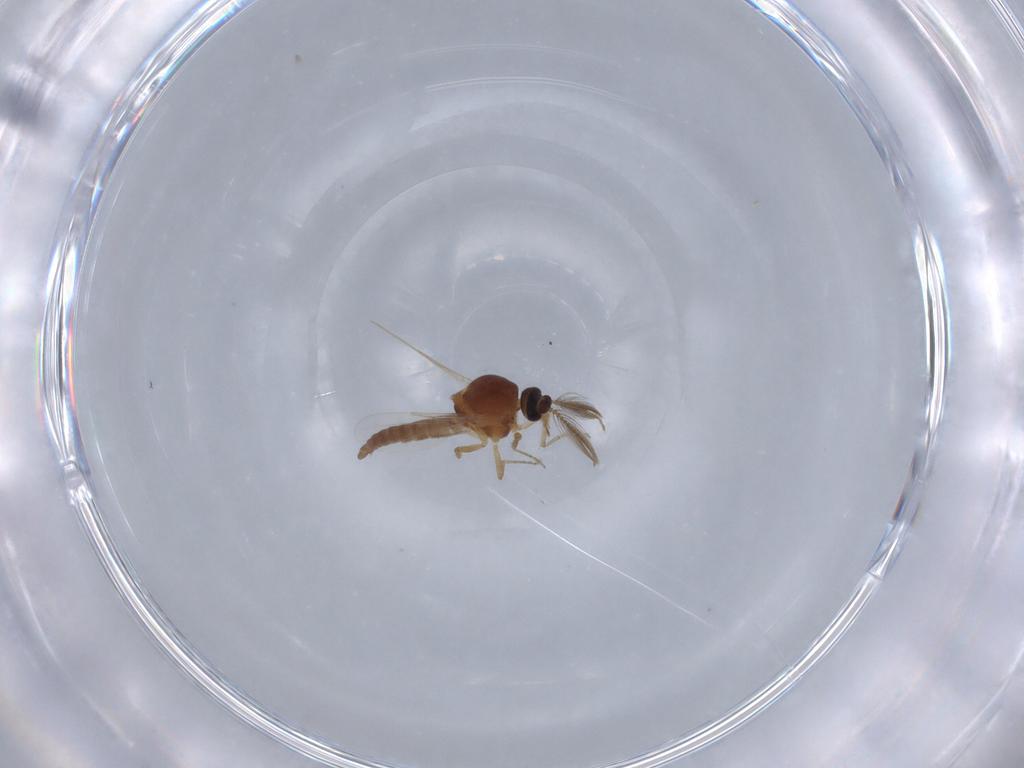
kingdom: Animalia
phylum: Arthropoda
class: Insecta
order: Diptera
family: Ceratopogonidae
